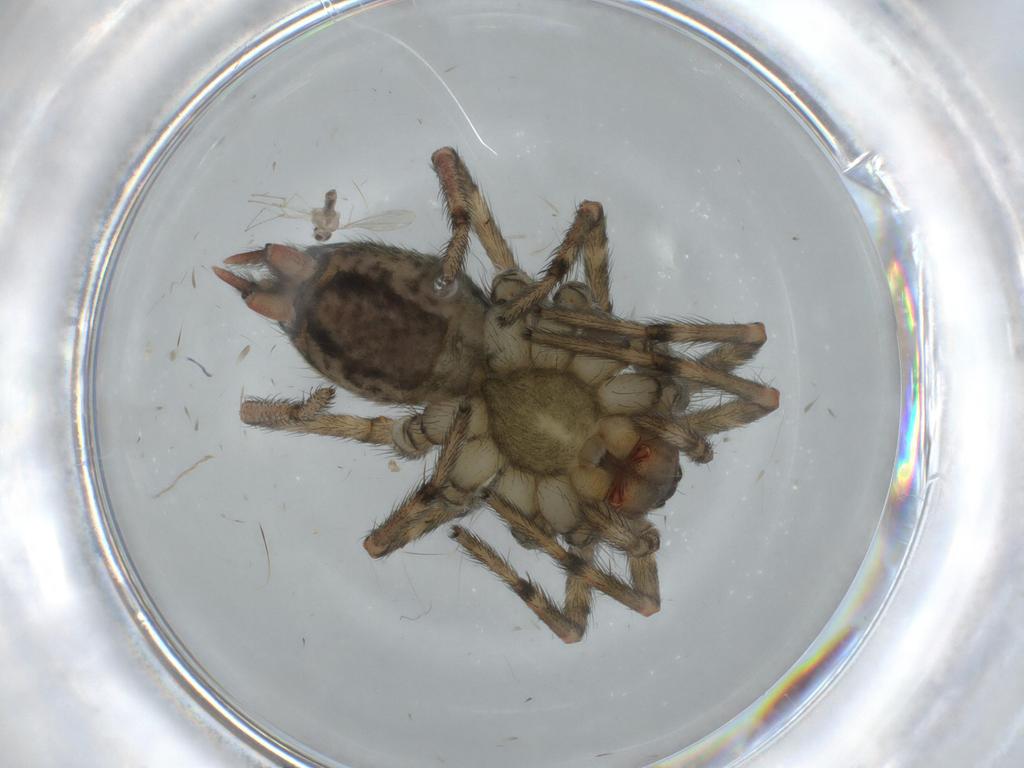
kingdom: Animalia
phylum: Arthropoda
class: Arachnida
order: Araneae
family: Agelenidae
